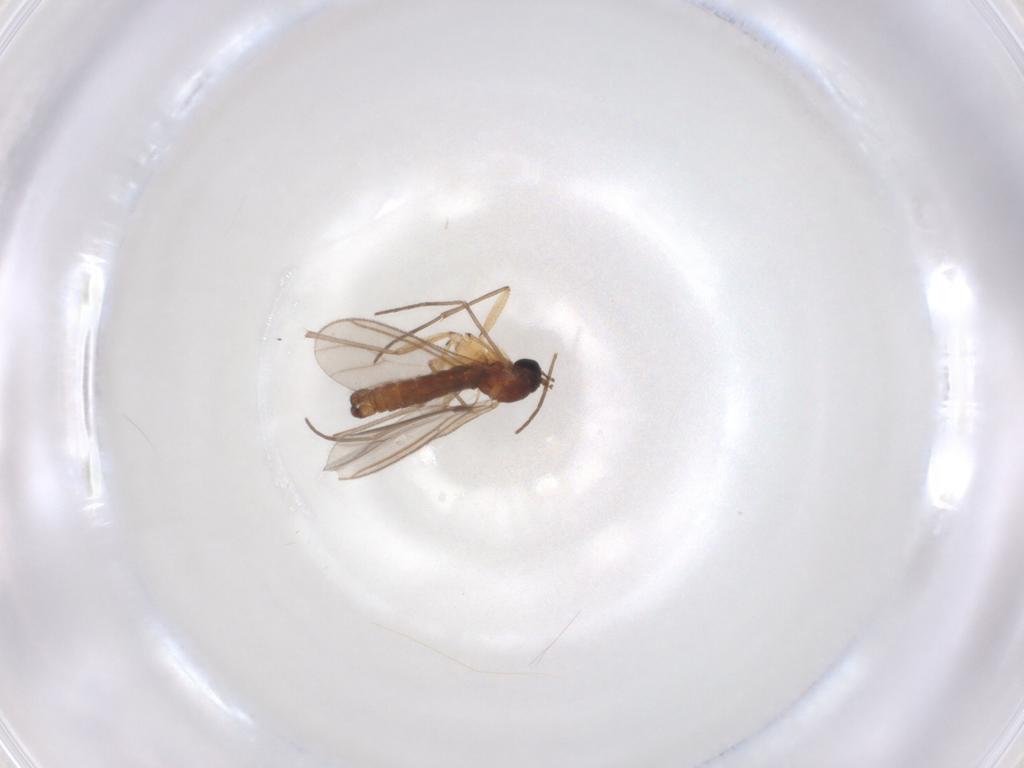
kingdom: Animalia
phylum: Arthropoda
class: Insecta
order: Diptera
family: Sciaridae
